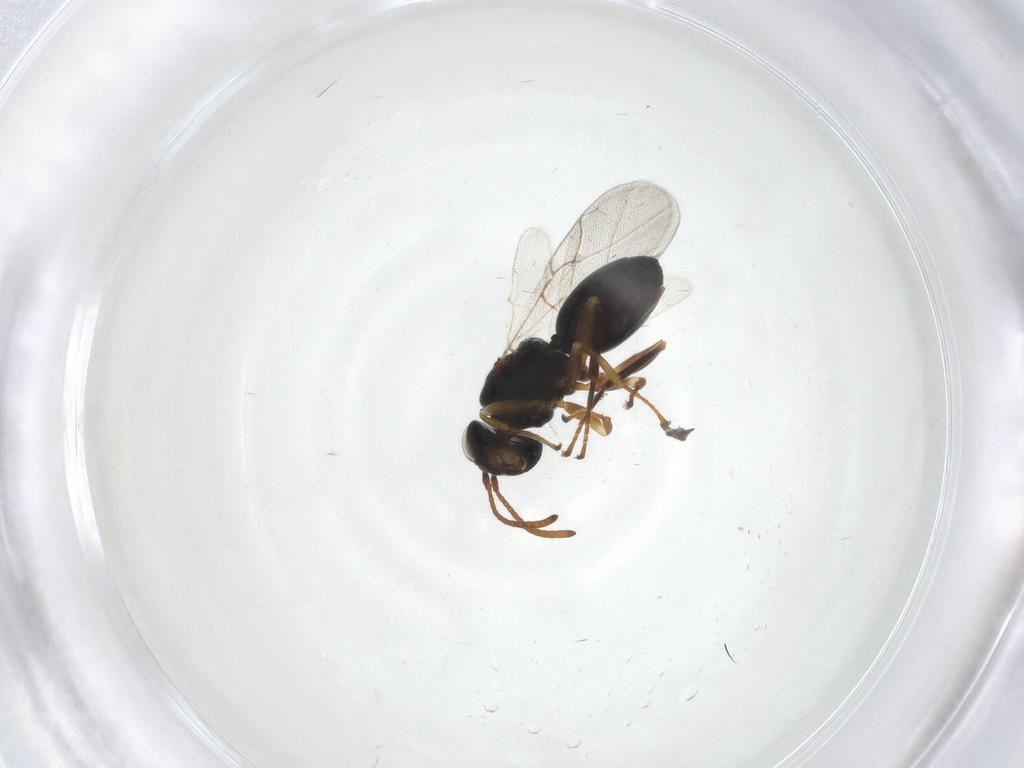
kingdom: Animalia
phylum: Arthropoda
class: Insecta
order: Hymenoptera
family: Cynipidae
